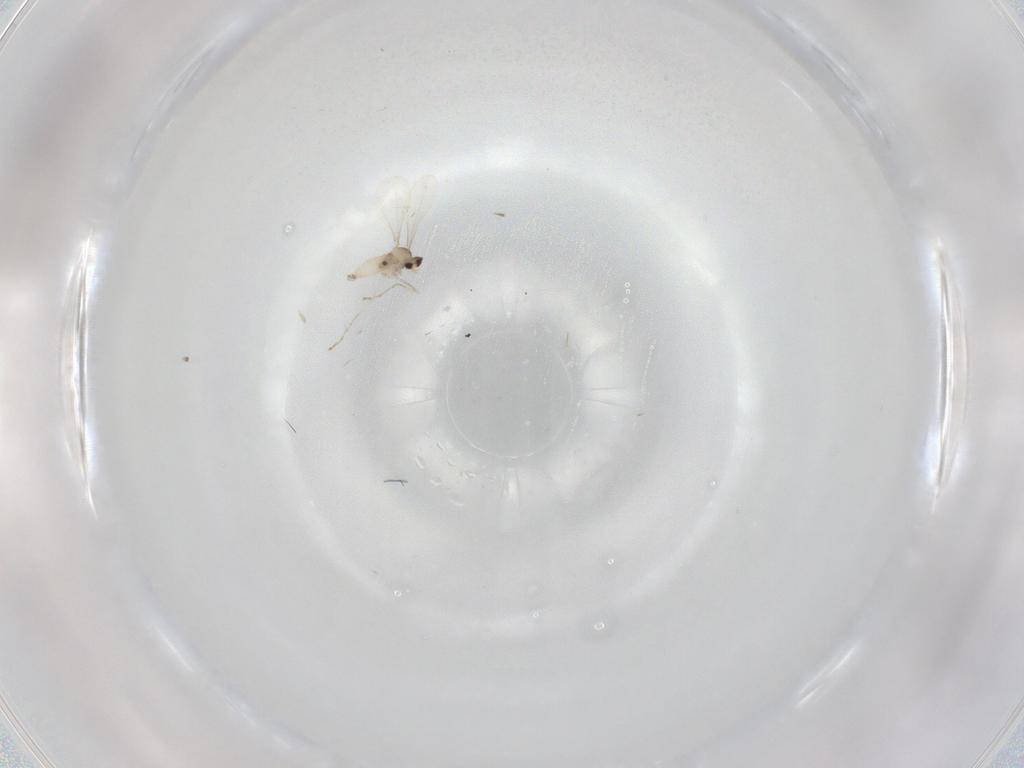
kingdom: Animalia
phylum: Arthropoda
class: Insecta
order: Diptera
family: Cecidomyiidae
